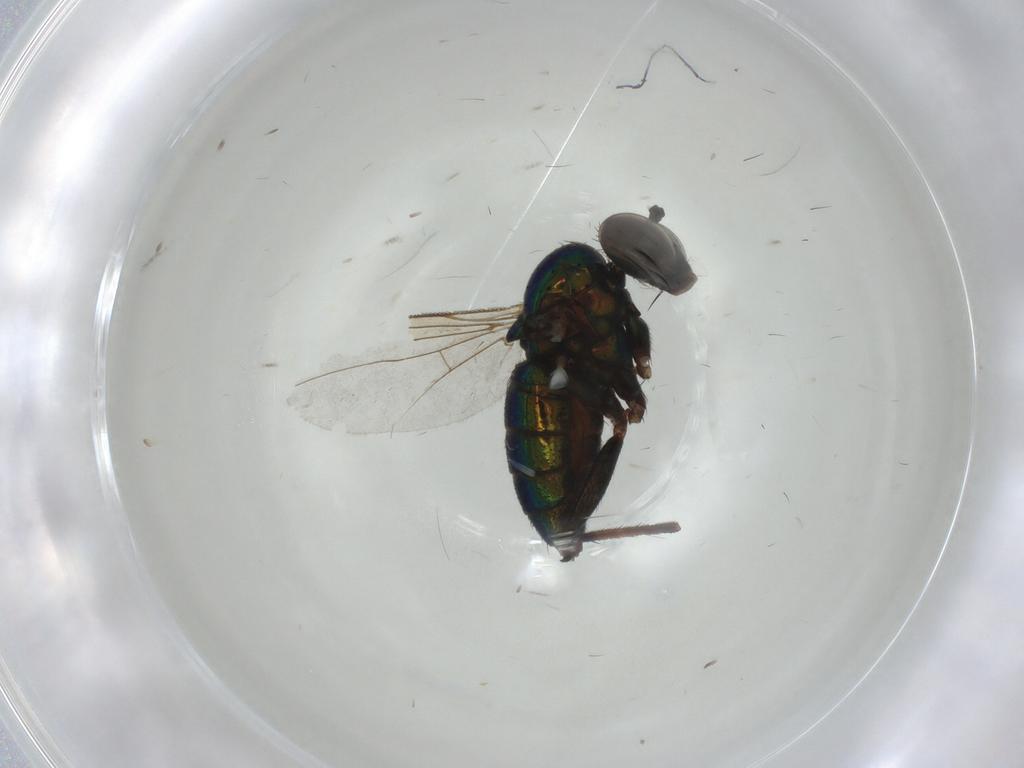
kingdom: Animalia
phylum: Arthropoda
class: Insecta
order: Diptera
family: Dolichopodidae
